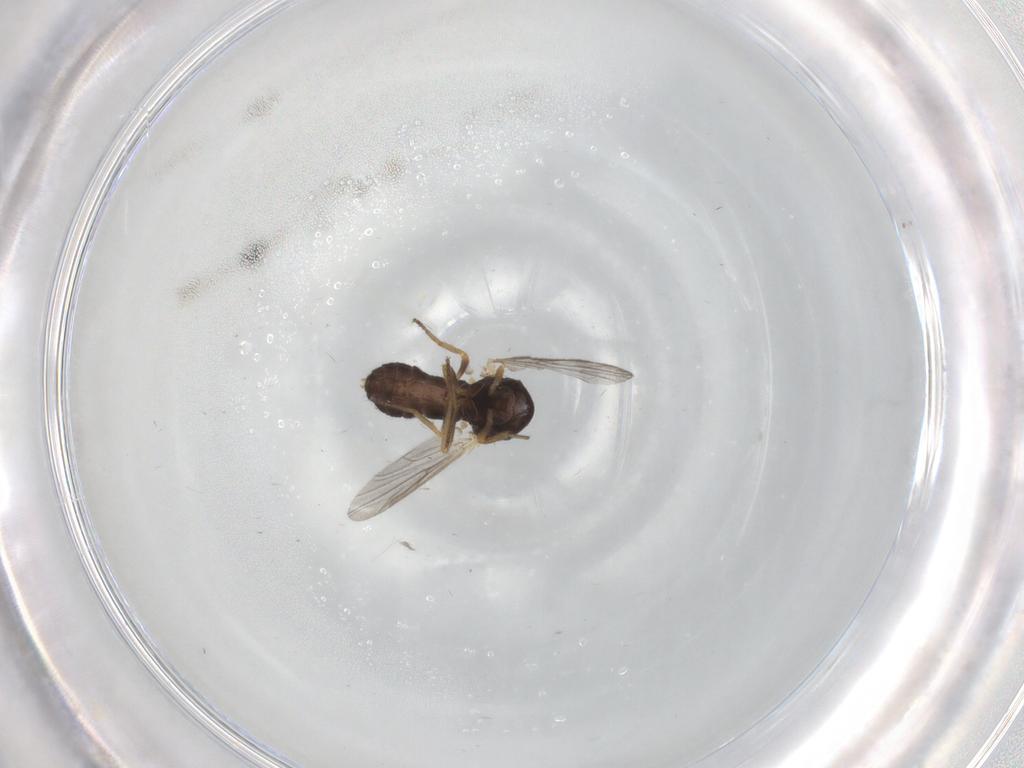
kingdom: Animalia
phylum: Arthropoda
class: Insecta
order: Diptera
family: Ceratopogonidae
